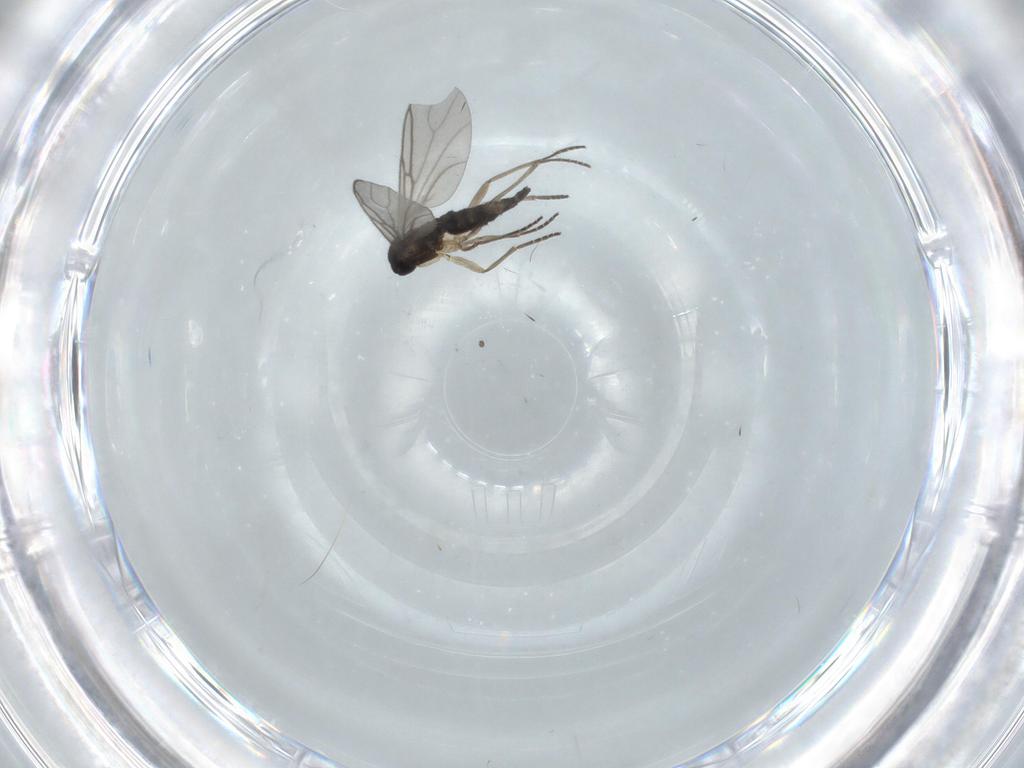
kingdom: Animalia
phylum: Arthropoda
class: Insecta
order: Diptera
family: Sciaridae
